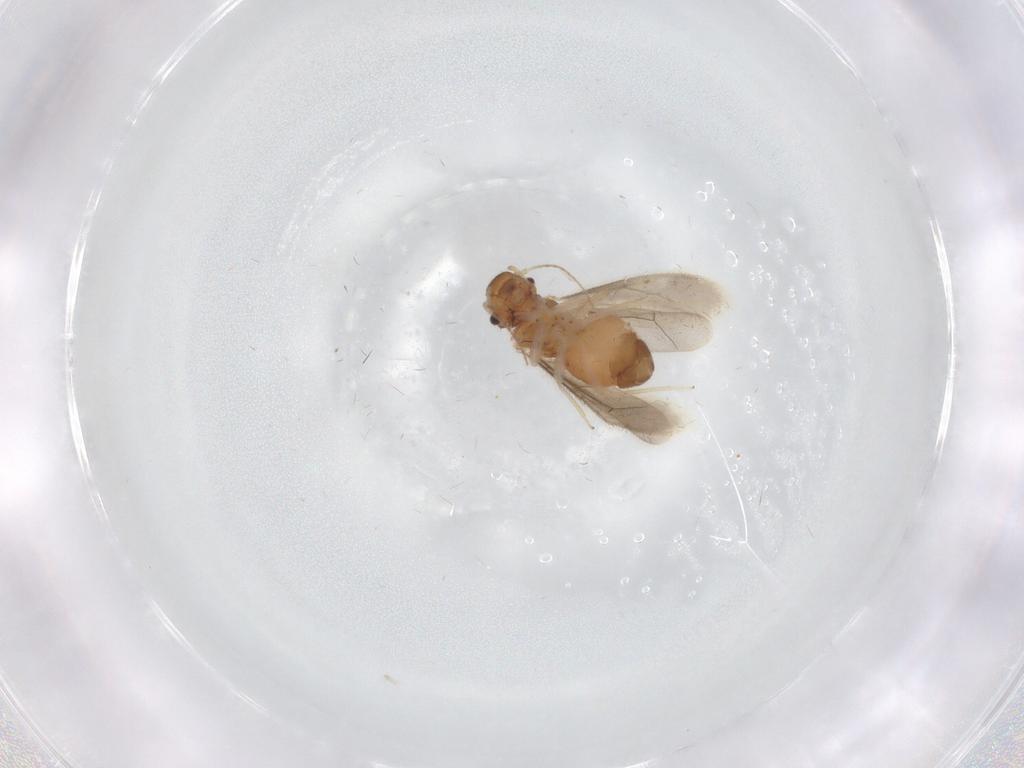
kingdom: Animalia
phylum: Arthropoda
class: Insecta
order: Psocodea
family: Archipsocidae
